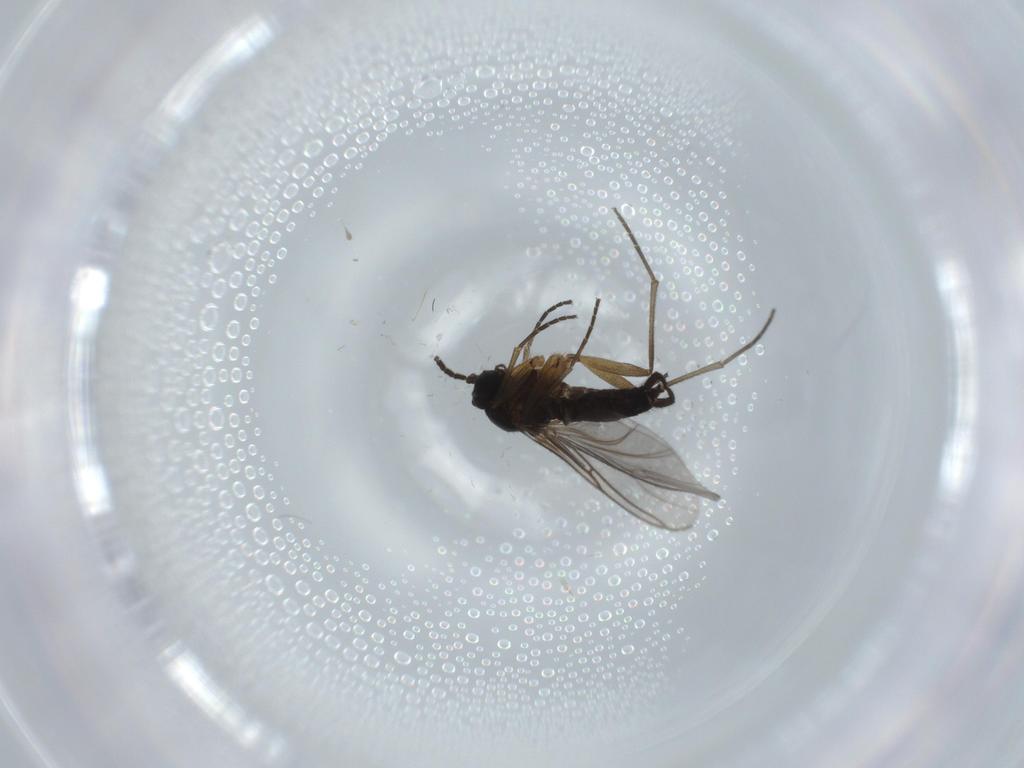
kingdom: Animalia
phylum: Arthropoda
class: Insecta
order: Diptera
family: Sciaridae
